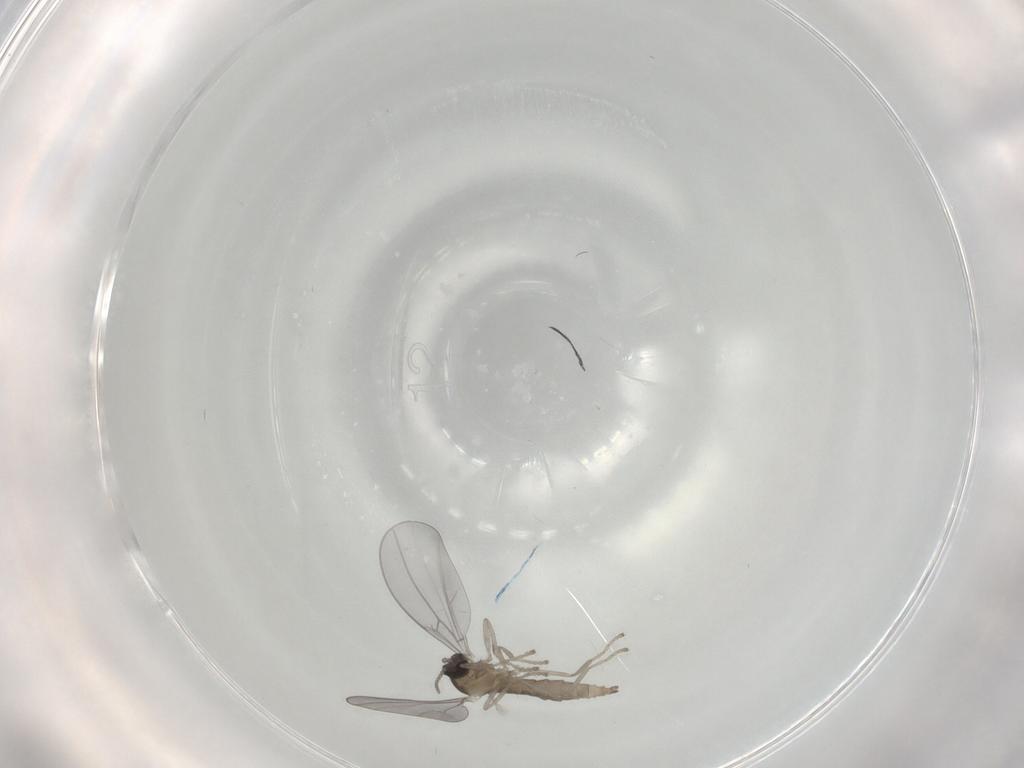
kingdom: Animalia
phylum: Arthropoda
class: Insecta
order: Diptera
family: Cecidomyiidae
